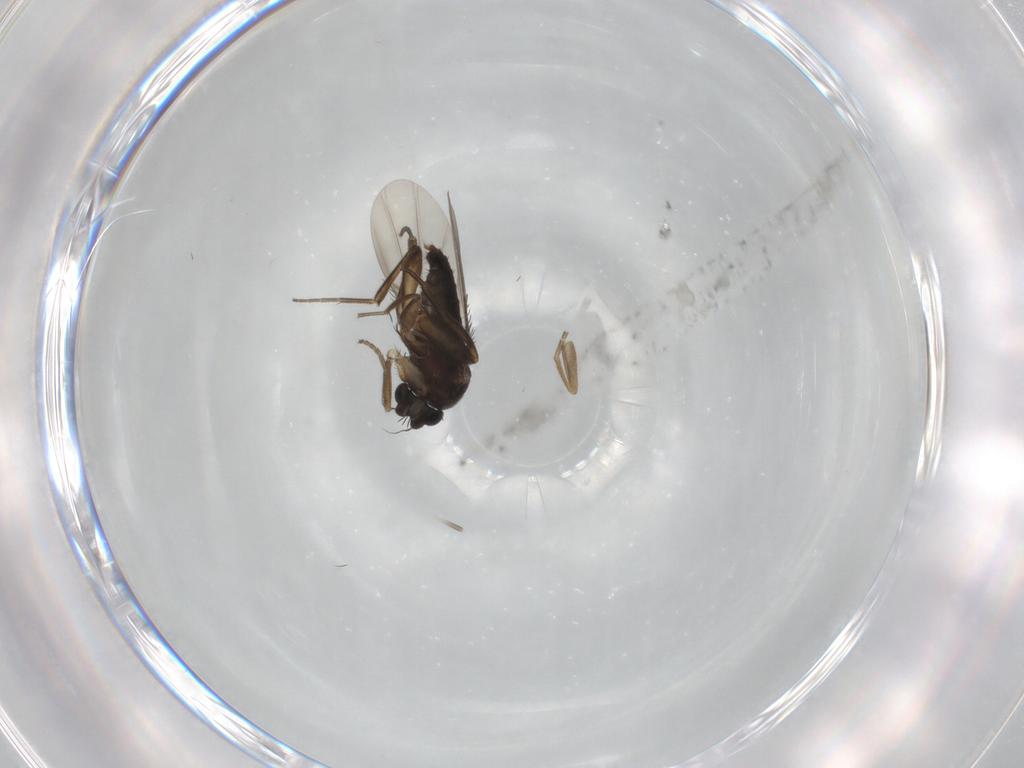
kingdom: Animalia
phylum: Arthropoda
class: Insecta
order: Diptera
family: Phoridae
